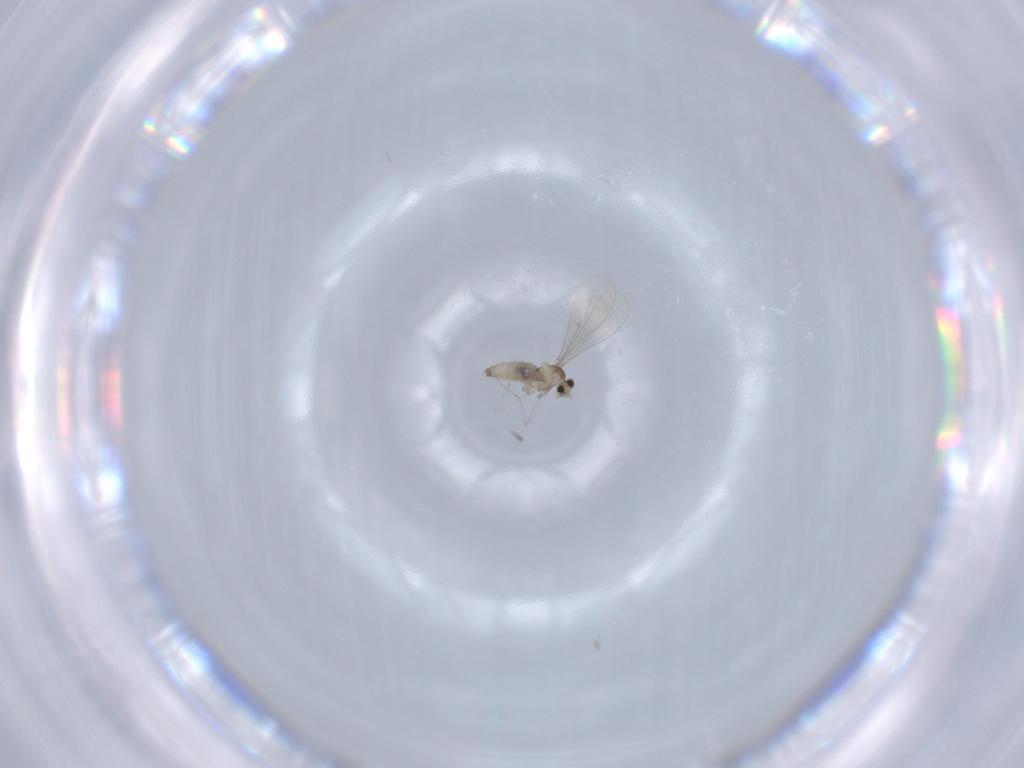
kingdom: Animalia
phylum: Arthropoda
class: Insecta
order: Diptera
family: Cecidomyiidae
